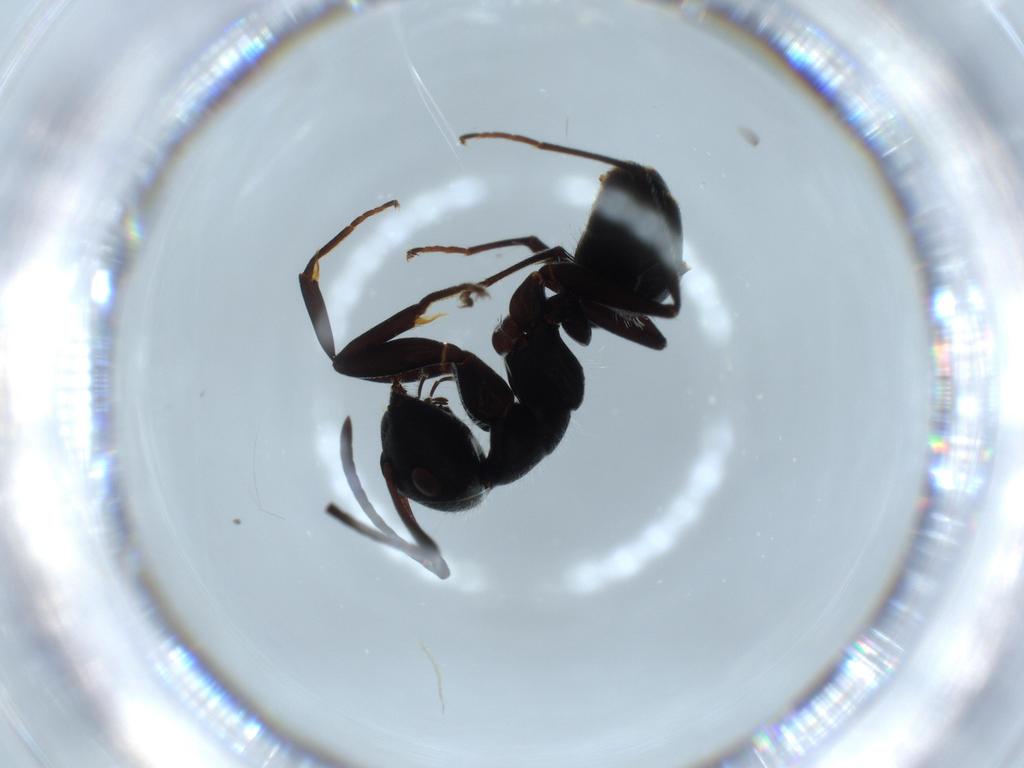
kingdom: Animalia
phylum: Arthropoda
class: Insecta
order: Hymenoptera
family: Formicidae
